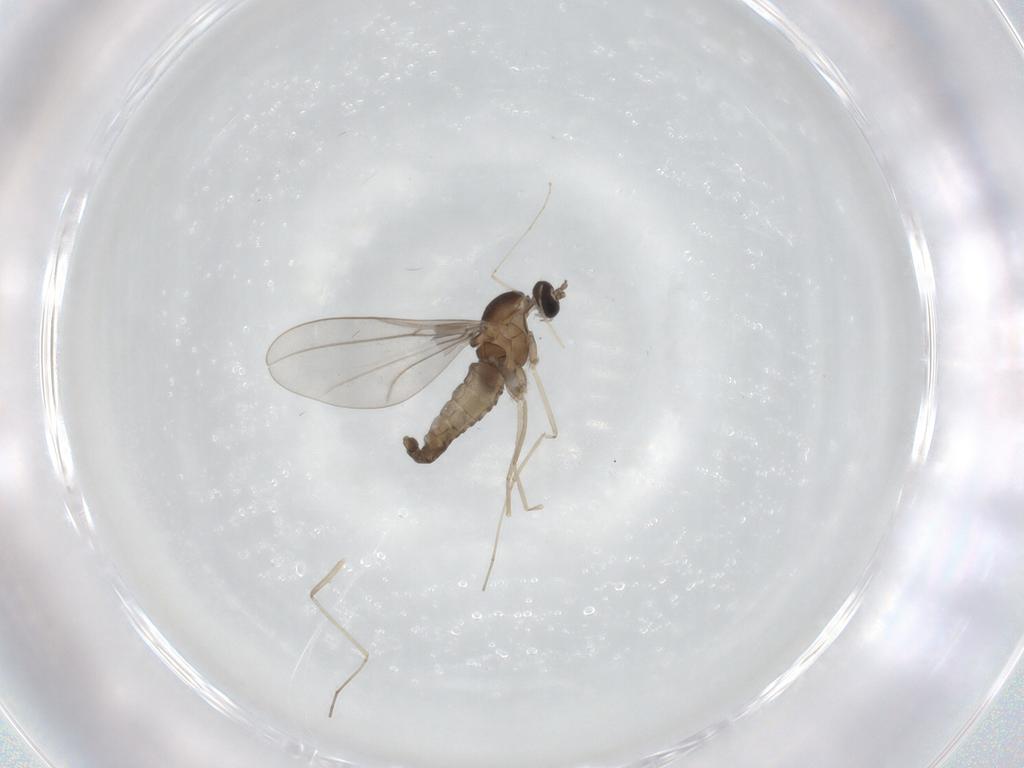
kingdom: Animalia
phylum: Arthropoda
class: Insecta
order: Diptera
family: Cecidomyiidae
